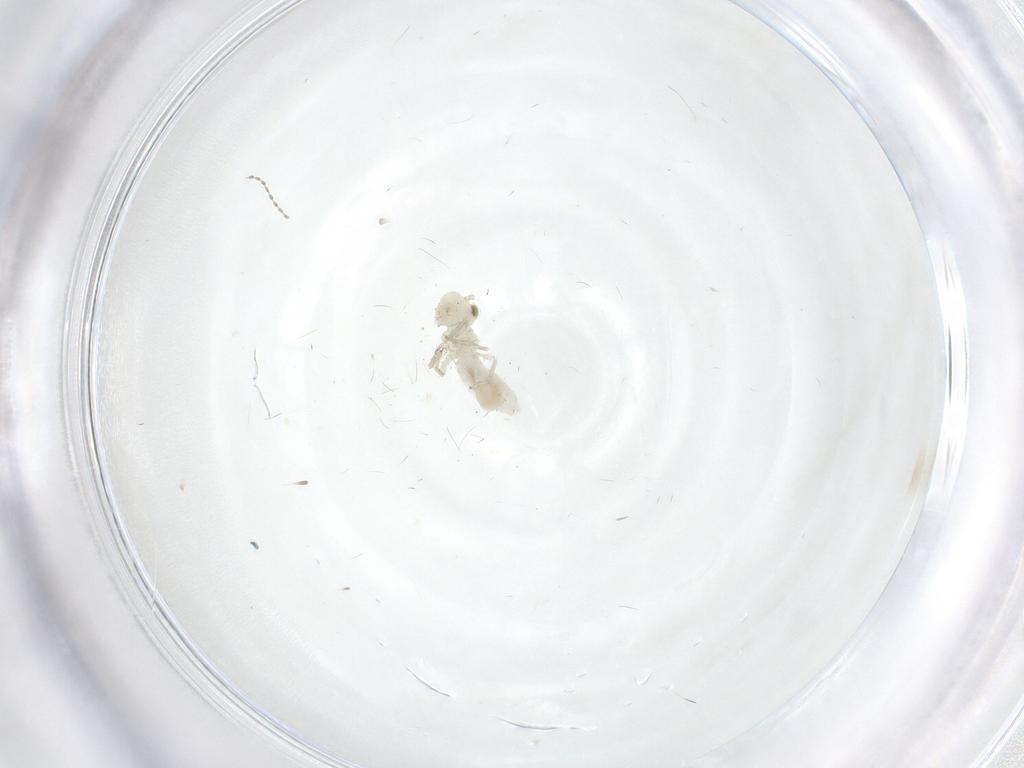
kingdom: Animalia
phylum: Arthropoda
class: Insecta
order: Psocodea
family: Caeciliusidae
